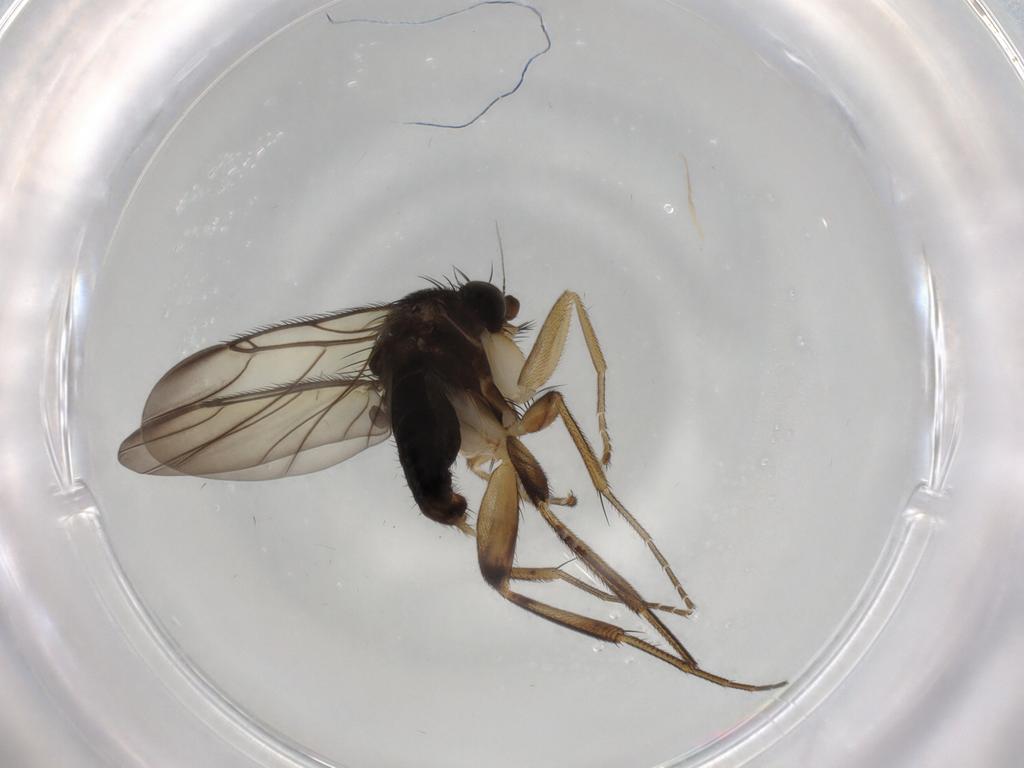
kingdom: Animalia
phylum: Arthropoda
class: Insecta
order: Diptera
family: Phoridae
